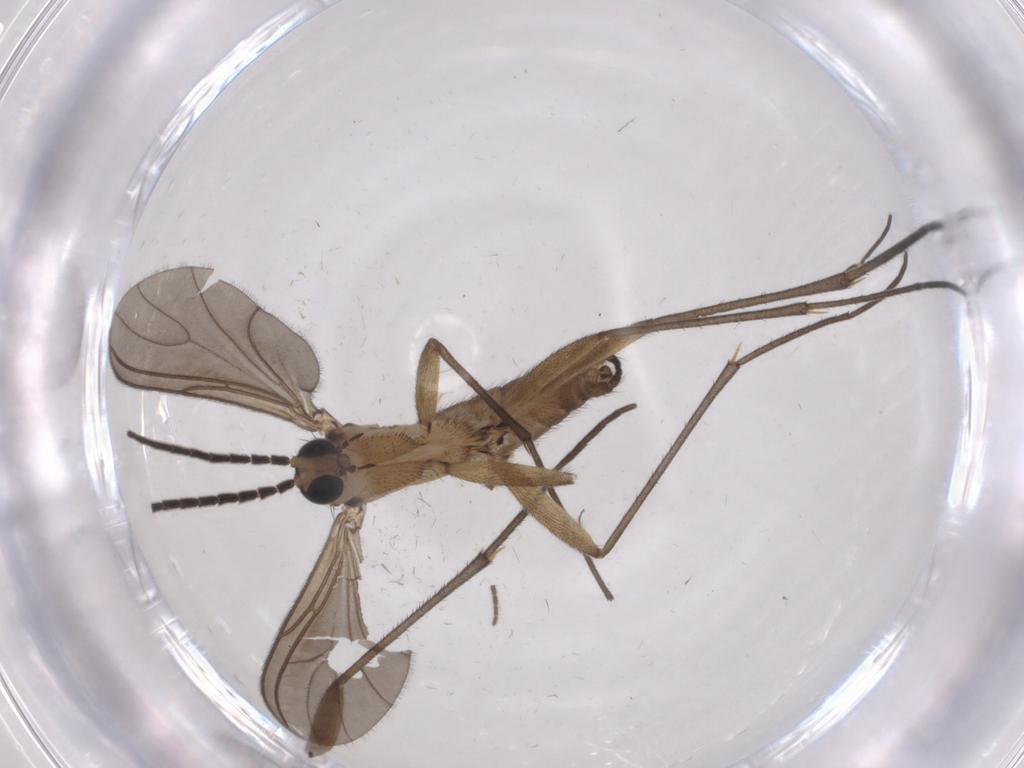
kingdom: Animalia
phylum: Arthropoda
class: Insecta
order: Diptera
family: Sciaridae
